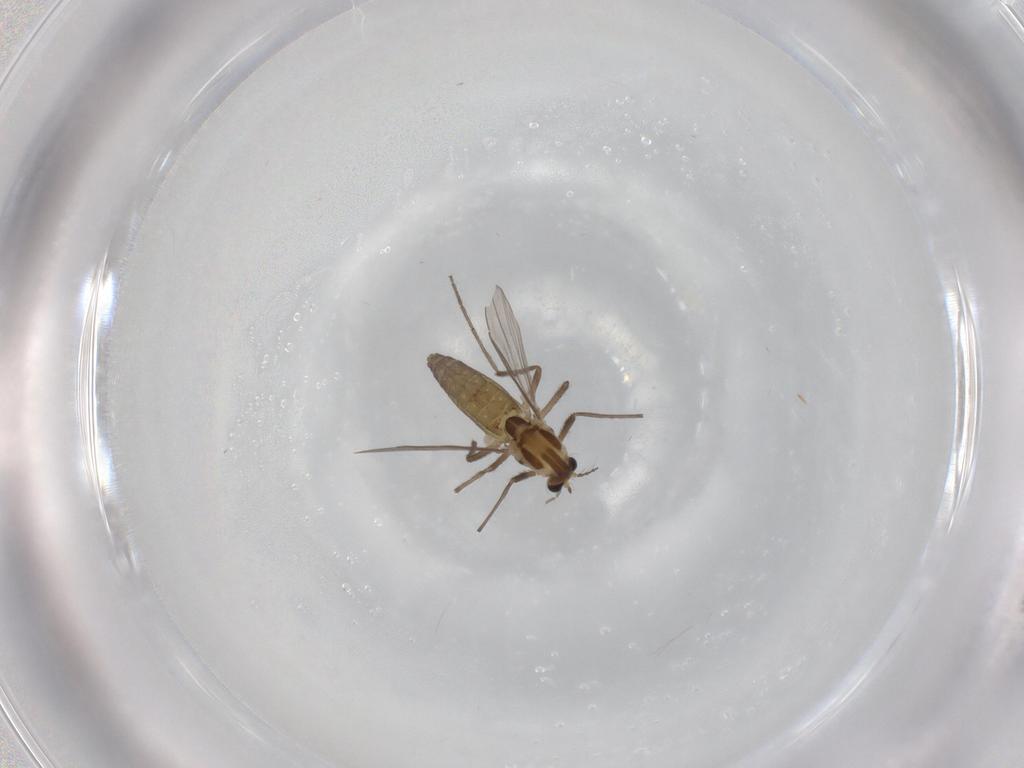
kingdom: Animalia
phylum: Arthropoda
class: Insecta
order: Diptera
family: Chironomidae
